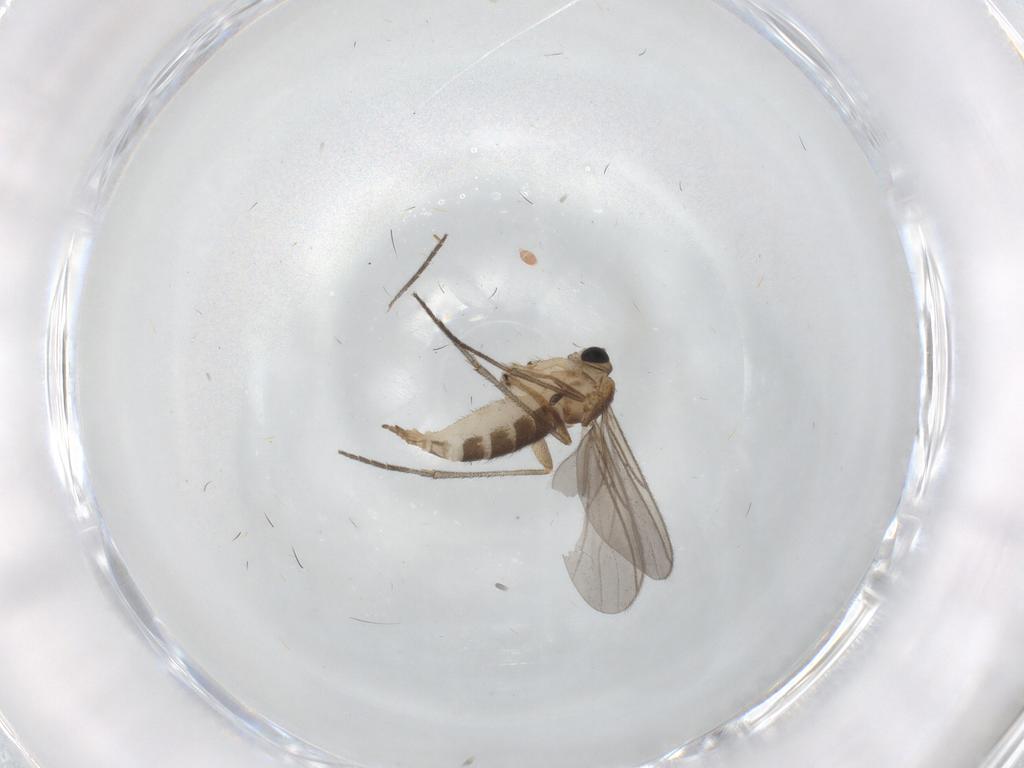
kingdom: Animalia
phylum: Arthropoda
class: Insecta
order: Diptera
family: Sciaridae
